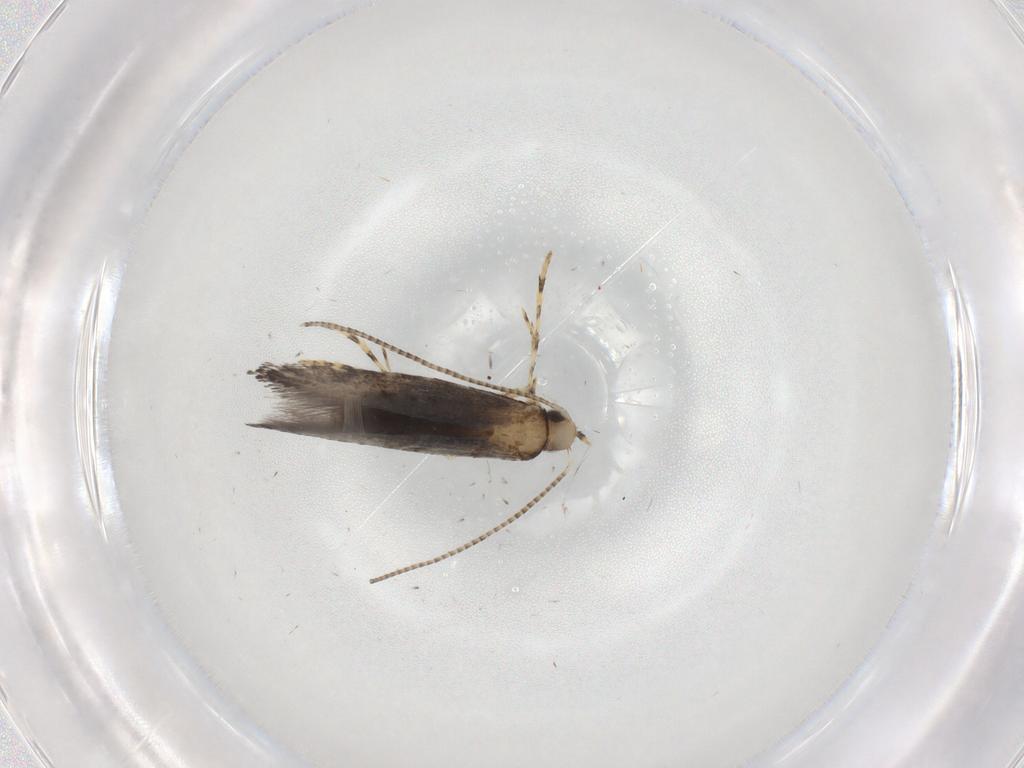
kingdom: Animalia
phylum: Arthropoda
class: Insecta
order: Lepidoptera
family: Gracillariidae
